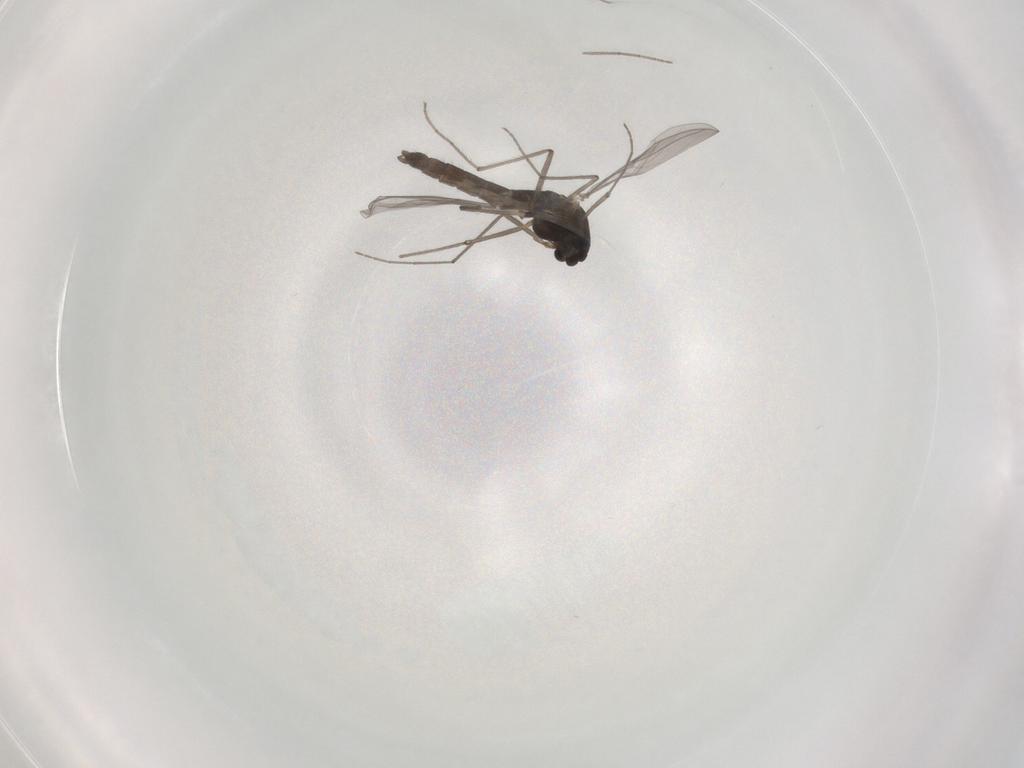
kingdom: Animalia
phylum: Arthropoda
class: Insecta
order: Diptera
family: Chironomidae
